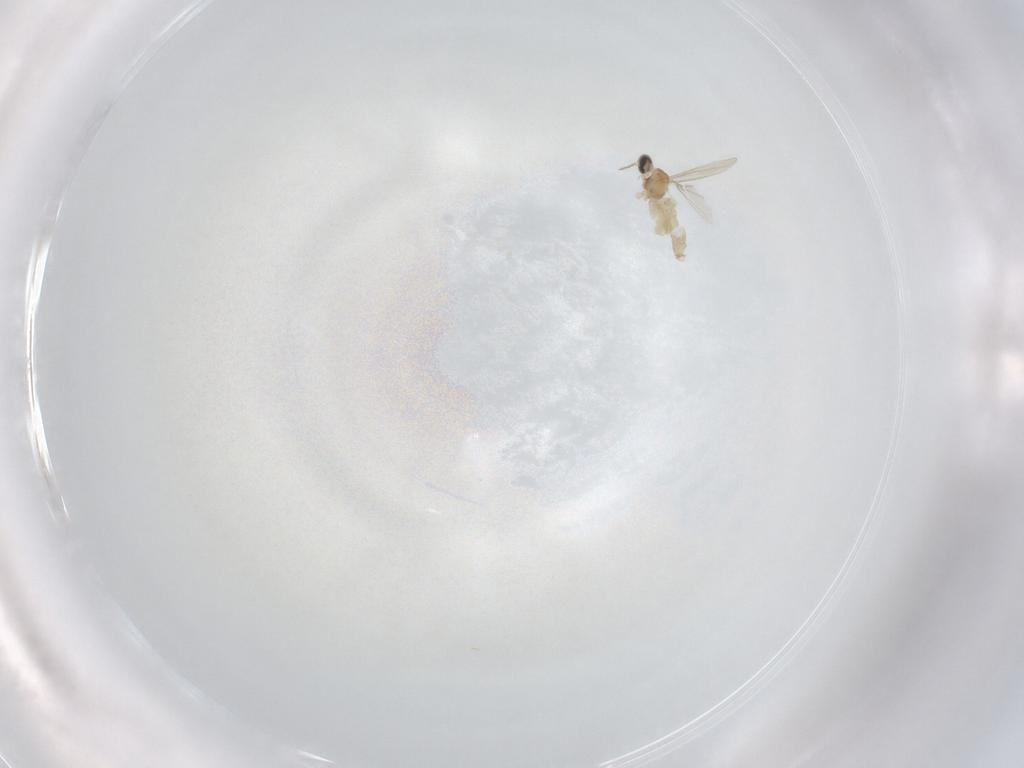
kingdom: Animalia
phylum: Arthropoda
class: Insecta
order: Diptera
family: Cecidomyiidae
